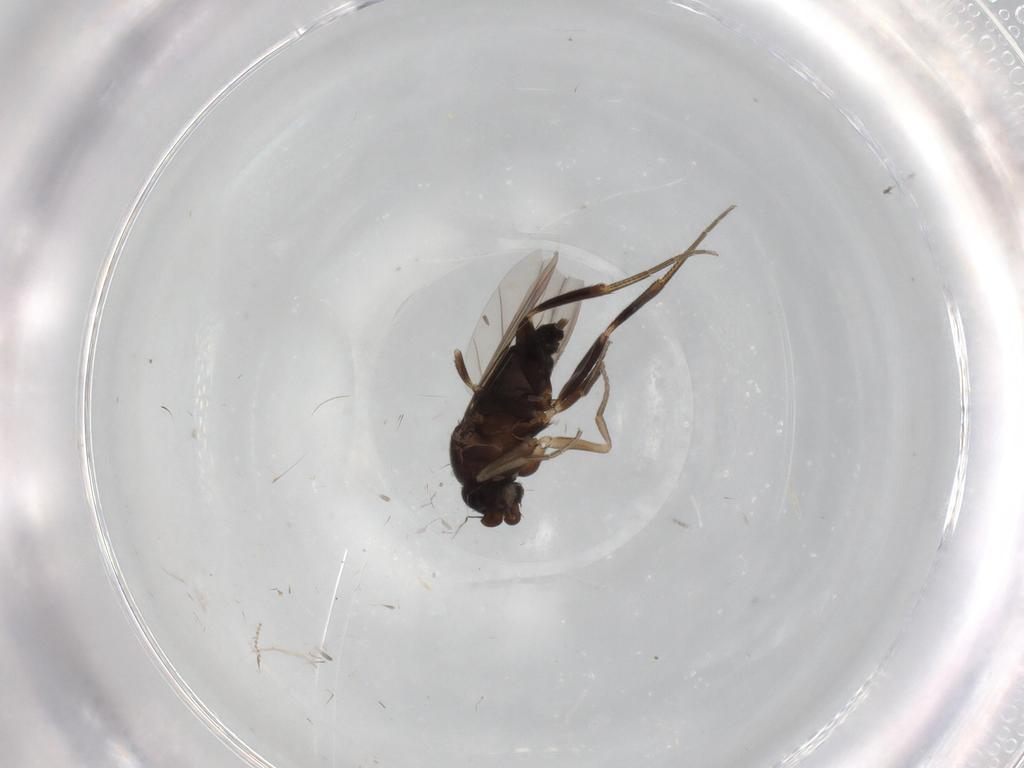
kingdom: Animalia
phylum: Arthropoda
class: Insecta
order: Diptera
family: Cecidomyiidae
